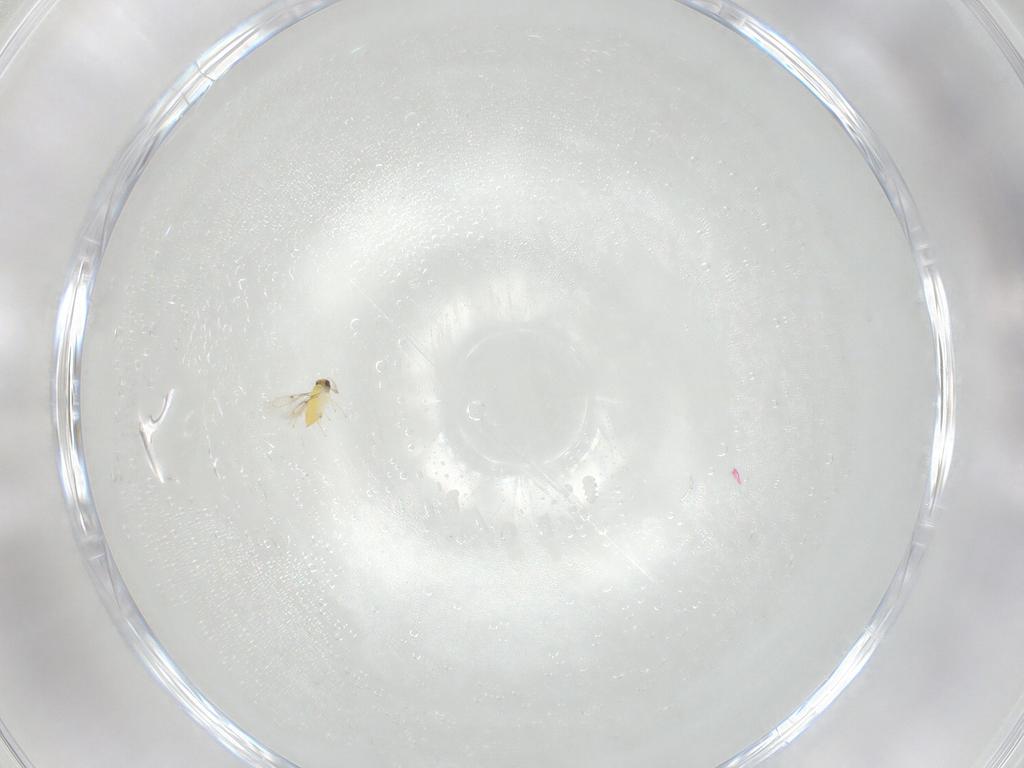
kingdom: Animalia
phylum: Arthropoda
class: Insecta
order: Hymenoptera
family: Trichogrammatidae
